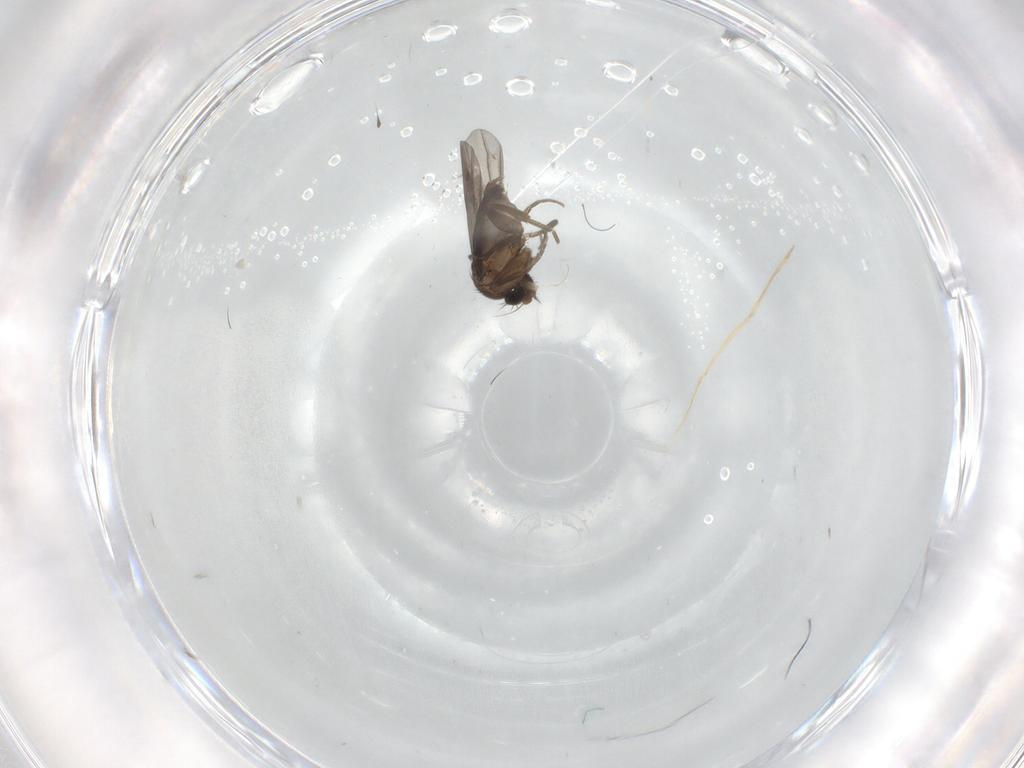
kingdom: Animalia
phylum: Arthropoda
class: Insecta
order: Diptera
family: Phoridae
